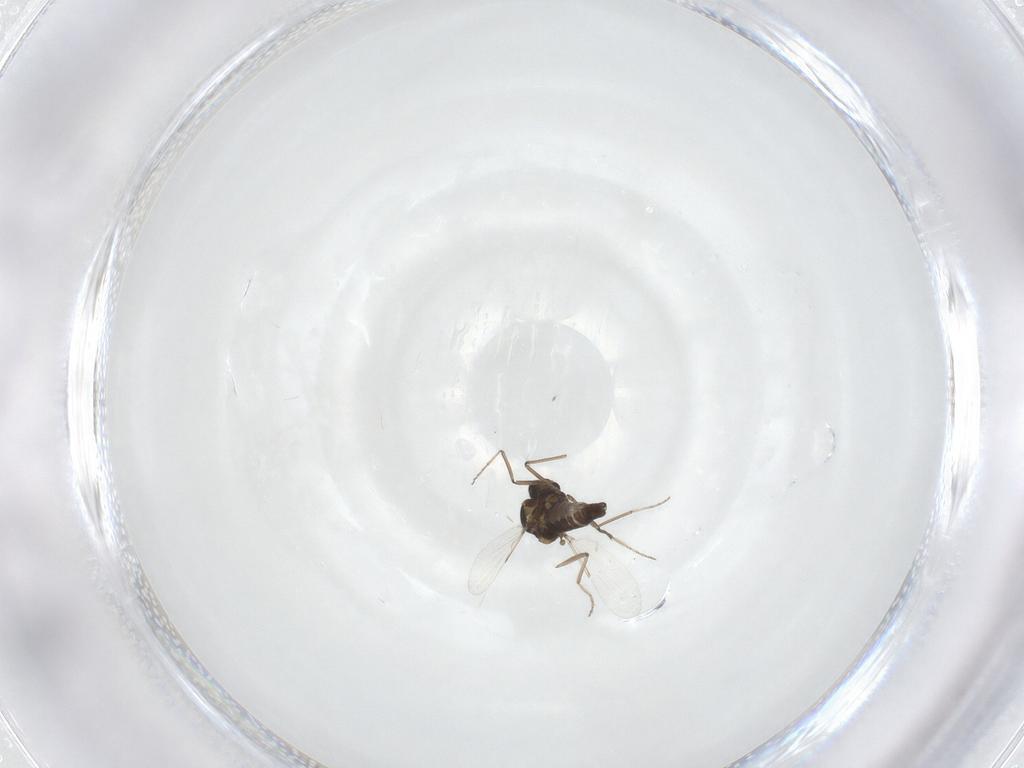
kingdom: Animalia
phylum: Arthropoda
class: Insecta
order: Diptera
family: Ceratopogonidae
